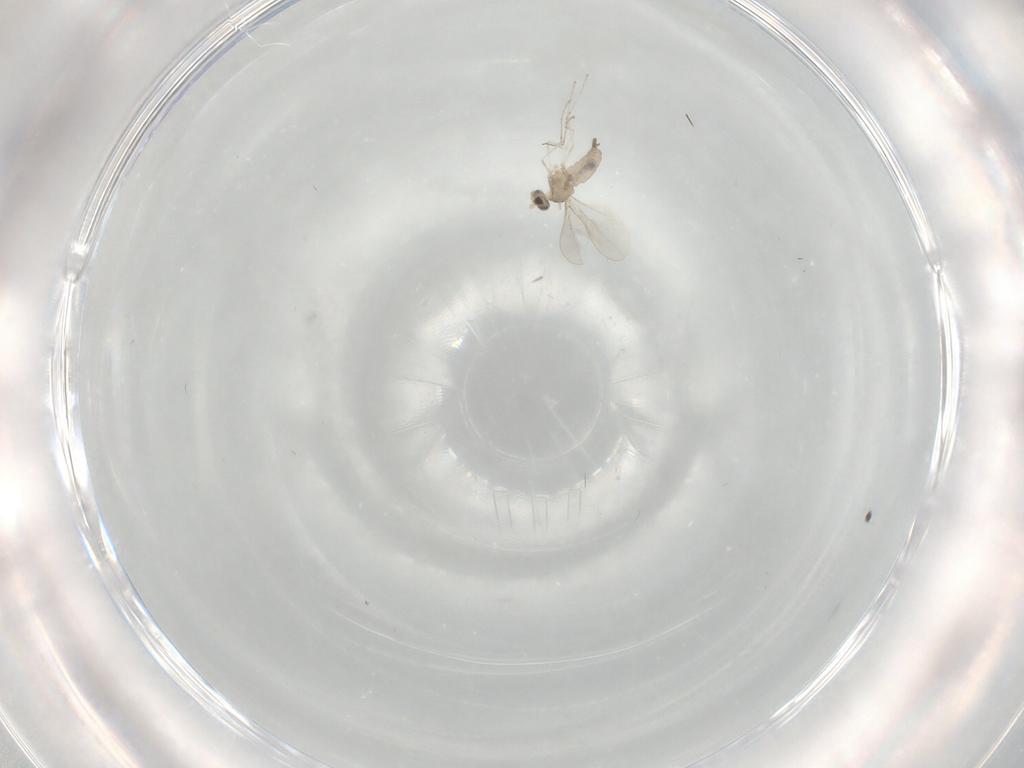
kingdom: Animalia
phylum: Arthropoda
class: Insecta
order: Diptera
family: Cecidomyiidae
